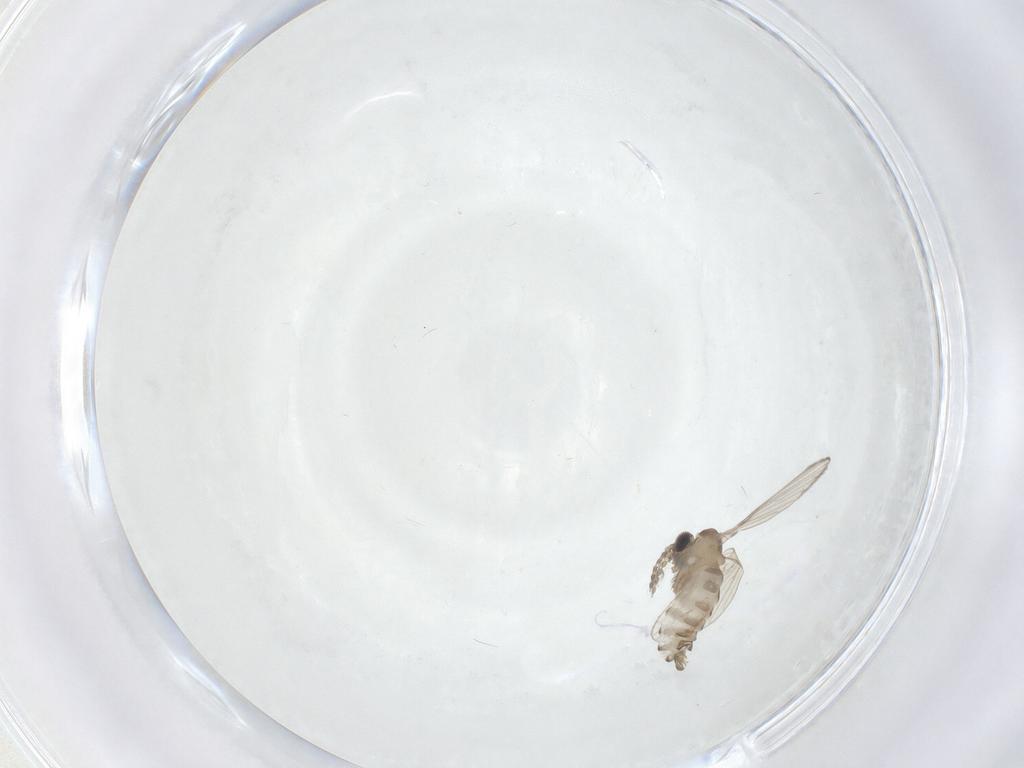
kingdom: Animalia
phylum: Arthropoda
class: Insecta
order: Diptera
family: Psychodidae
